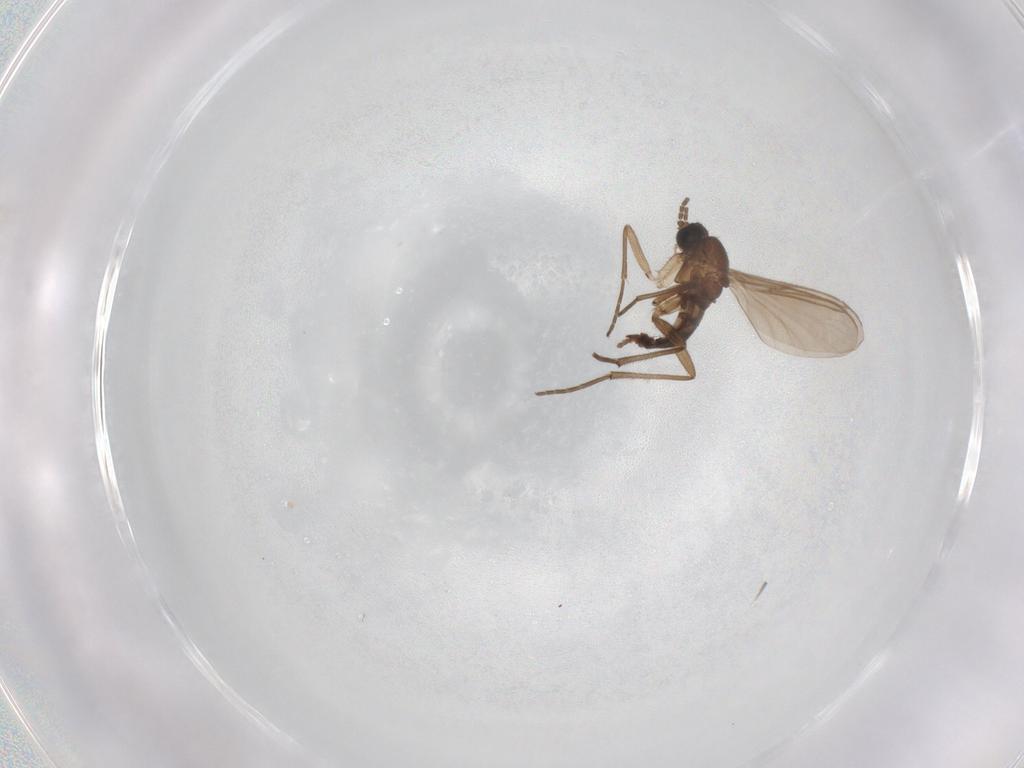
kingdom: Animalia
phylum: Arthropoda
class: Insecta
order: Diptera
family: Sciaridae
